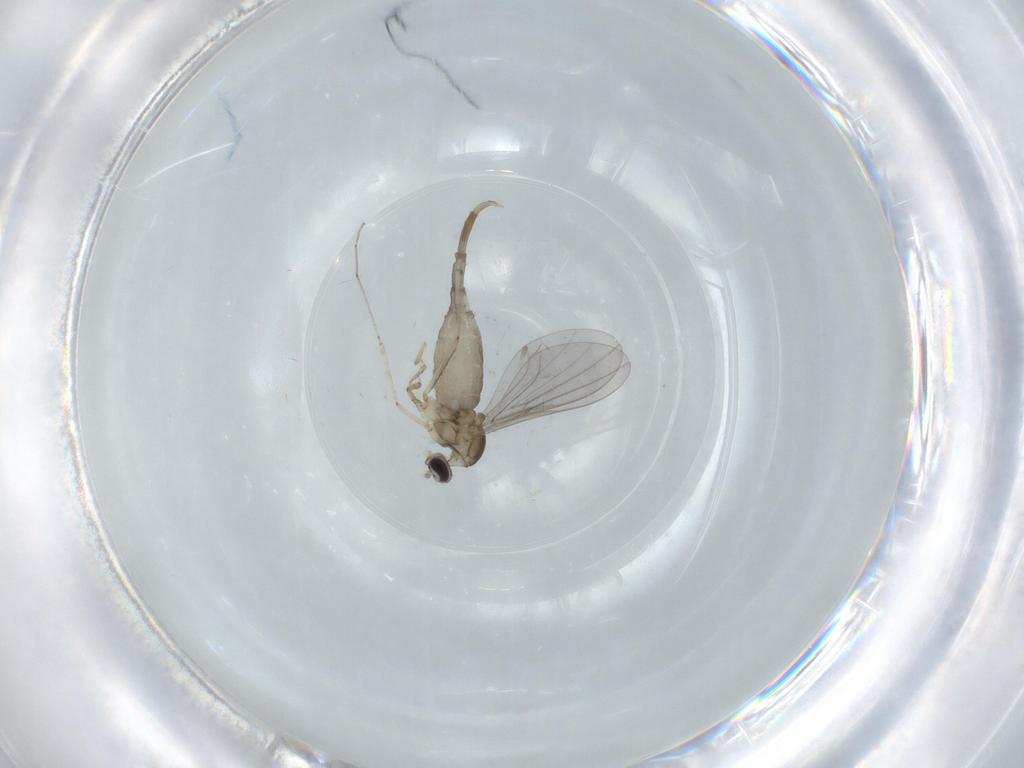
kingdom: Animalia
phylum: Arthropoda
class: Insecta
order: Diptera
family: Cecidomyiidae
